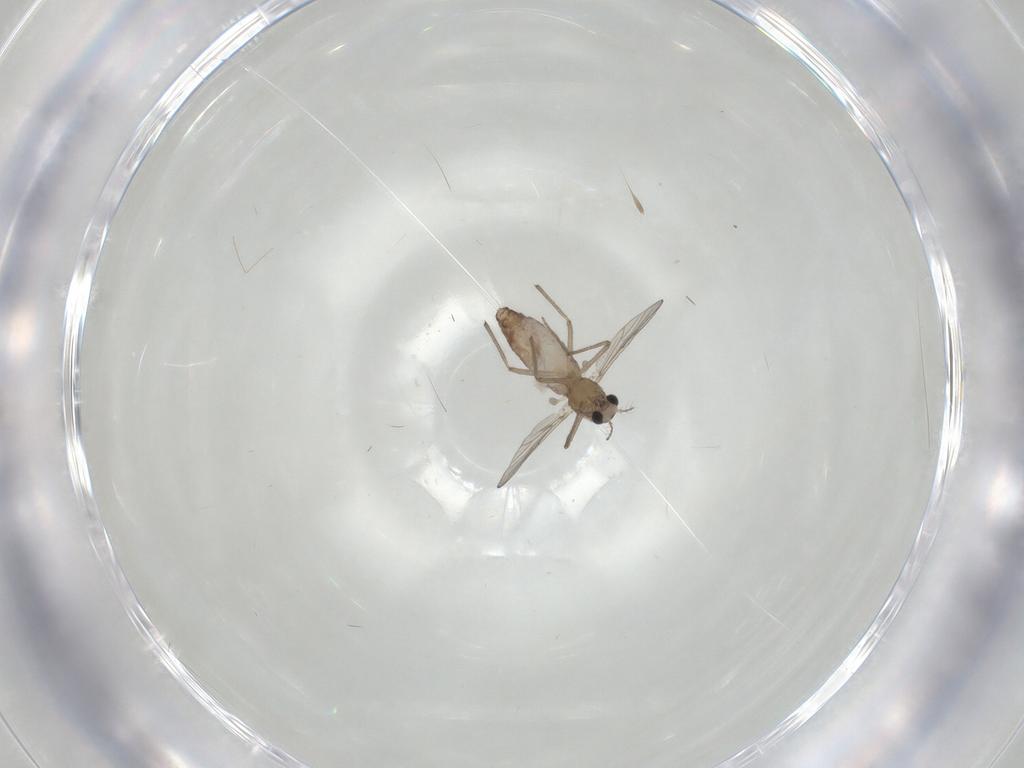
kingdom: Animalia
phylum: Arthropoda
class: Insecta
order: Diptera
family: Chironomidae
